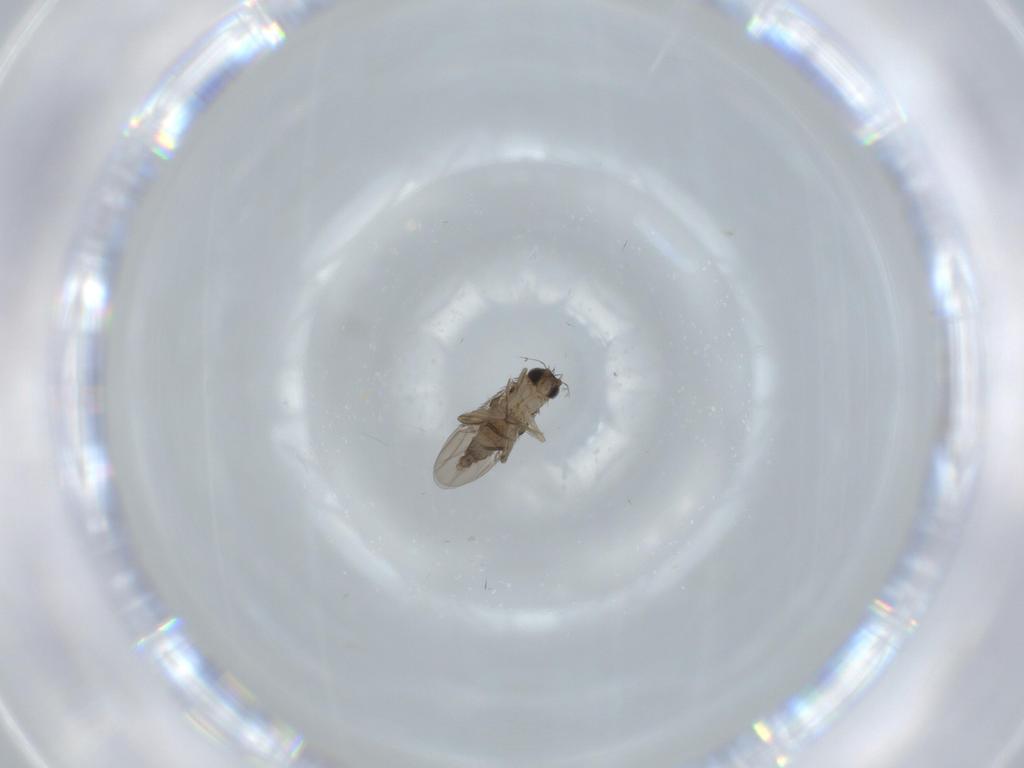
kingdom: Animalia
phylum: Arthropoda
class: Insecta
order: Diptera
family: Phoridae
